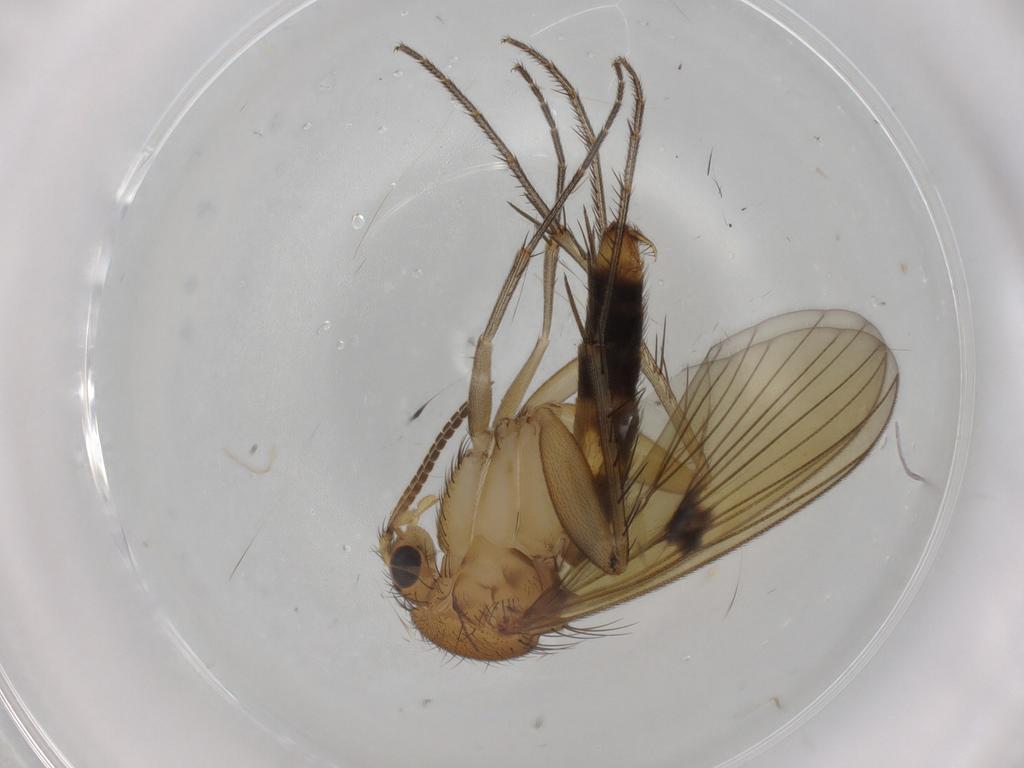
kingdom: Animalia
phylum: Arthropoda
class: Insecta
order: Diptera
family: Mycetophilidae
